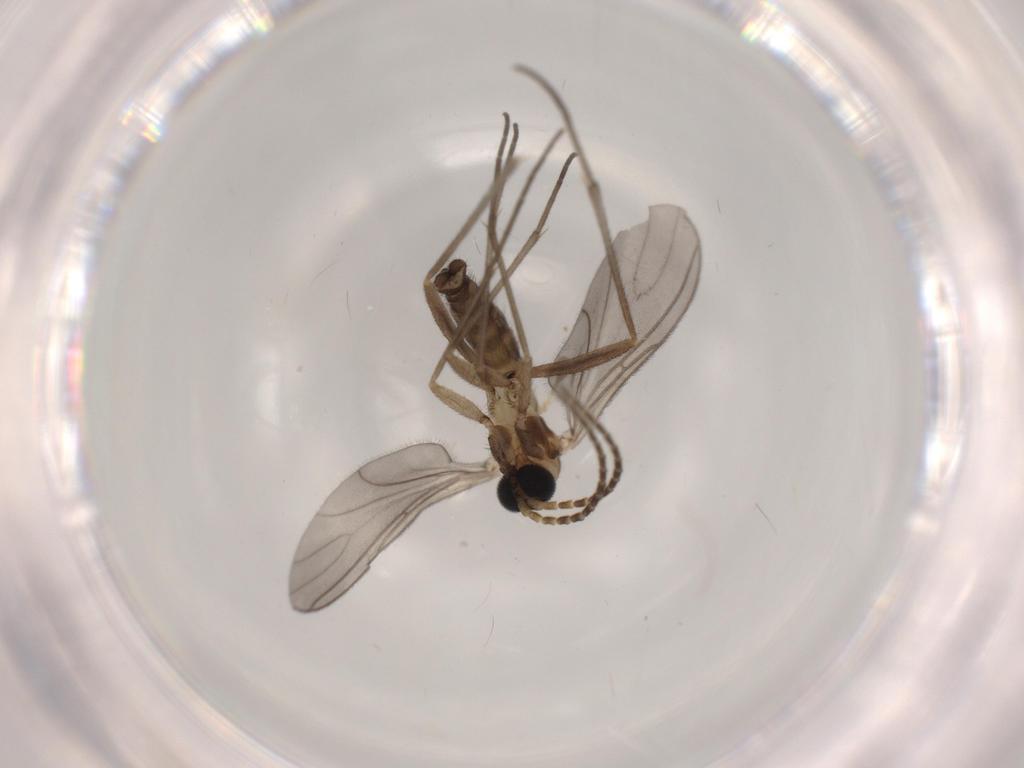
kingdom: Animalia
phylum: Arthropoda
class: Insecta
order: Diptera
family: Sciaridae
